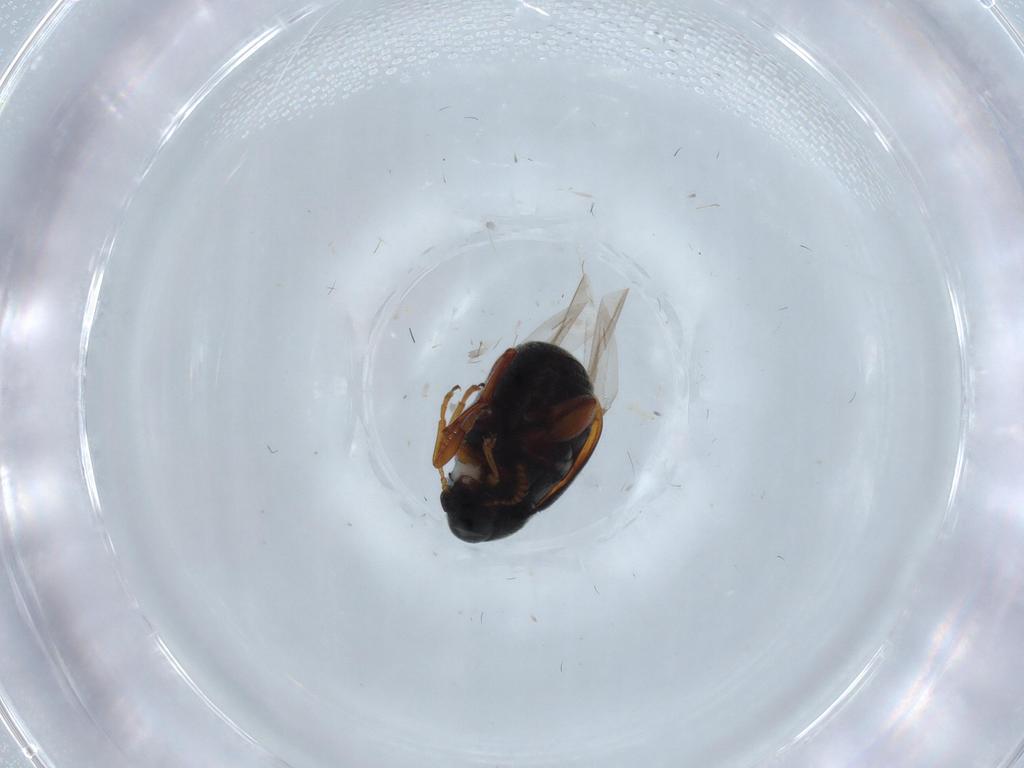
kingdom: Animalia
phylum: Arthropoda
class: Insecta
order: Coleoptera
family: Chrysomelidae
